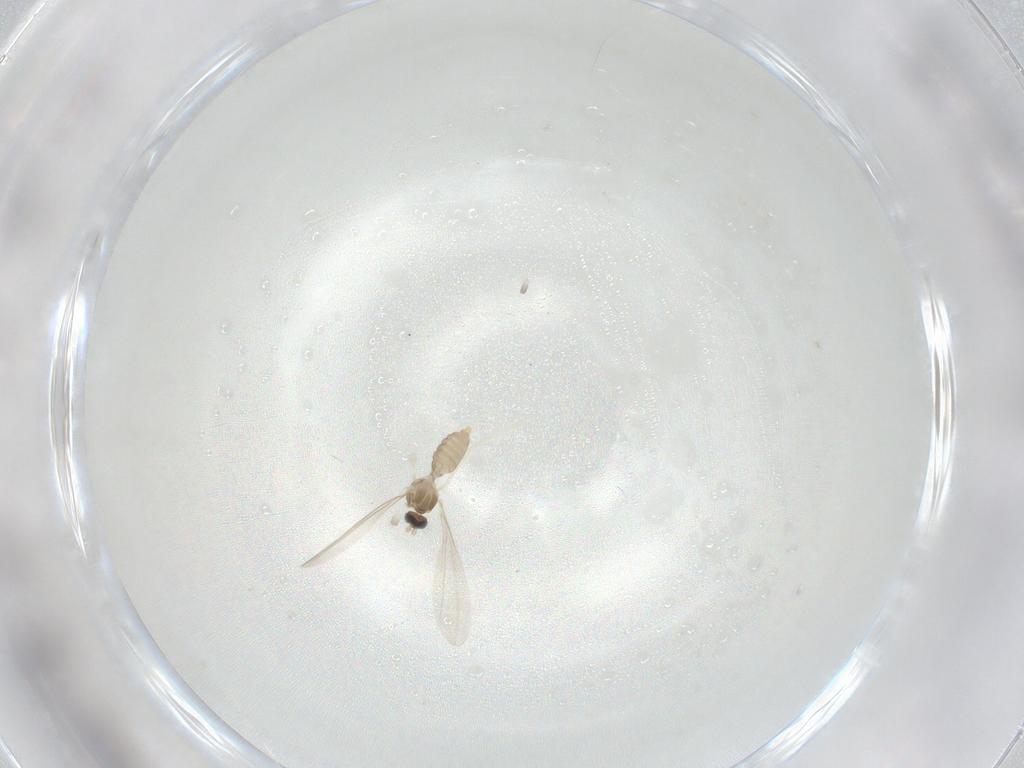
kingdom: Animalia
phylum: Arthropoda
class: Insecta
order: Diptera
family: Cecidomyiidae
